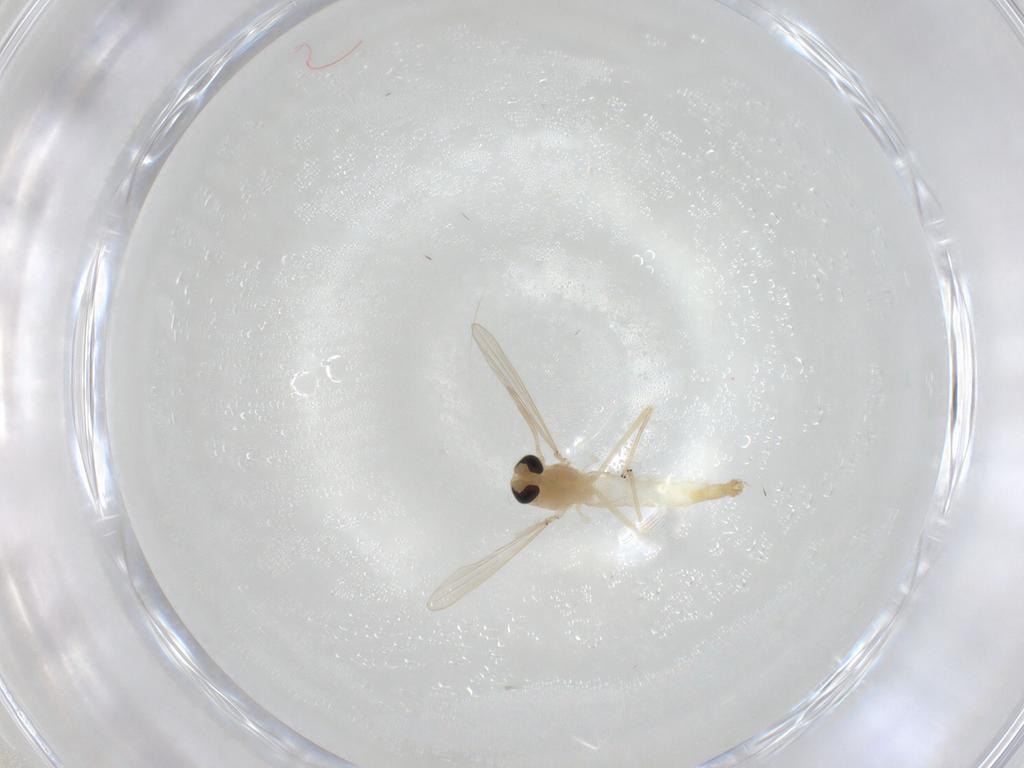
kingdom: Animalia
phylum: Arthropoda
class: Insecta
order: Diptera
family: Chironomidae
